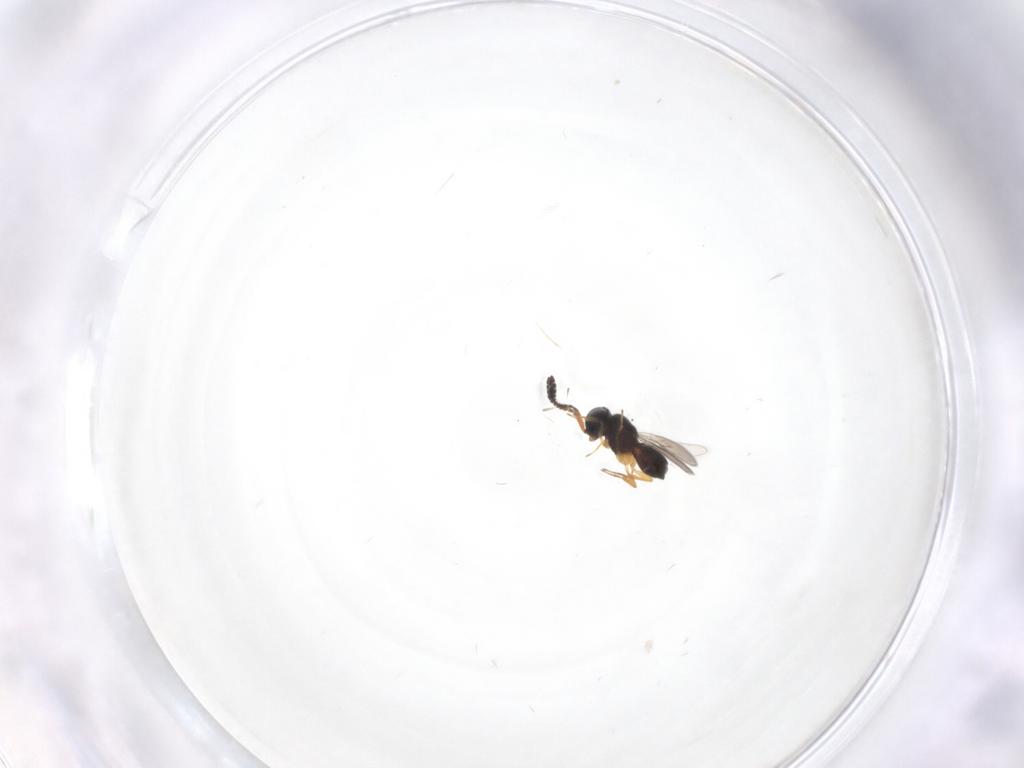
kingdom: Animalia
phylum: Arthropoda
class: Insecta
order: Hymenoptera
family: Scelionidae
